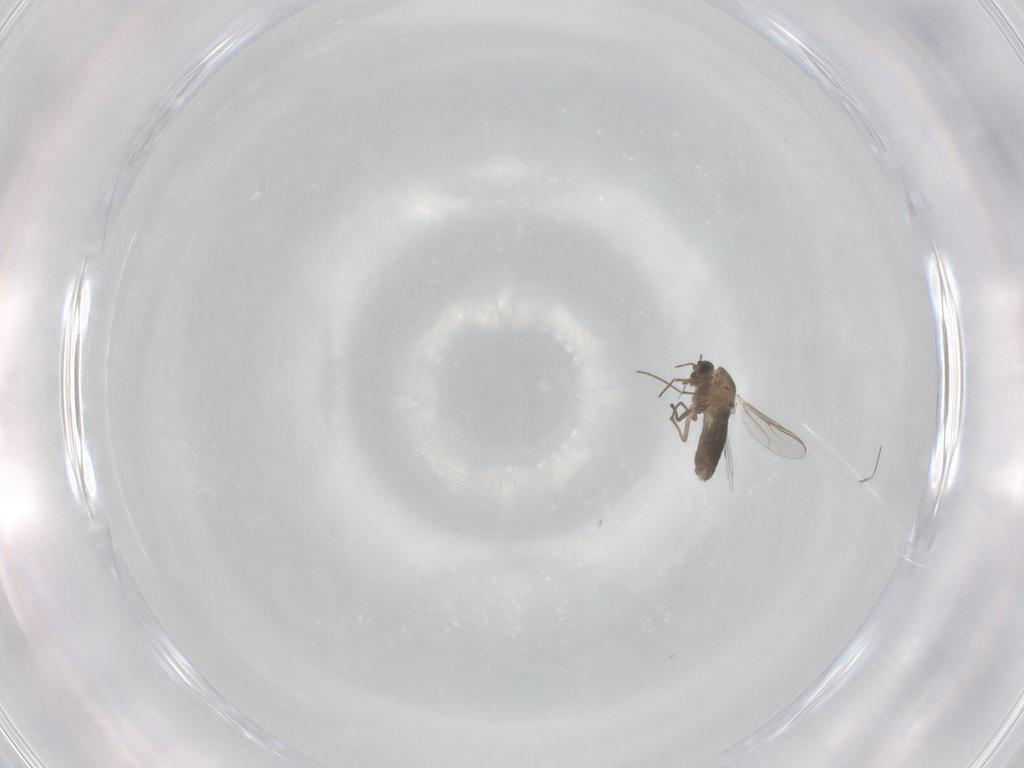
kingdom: Animalia
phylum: Arthropoda
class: Insecta
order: Diptera
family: Chironomidae
